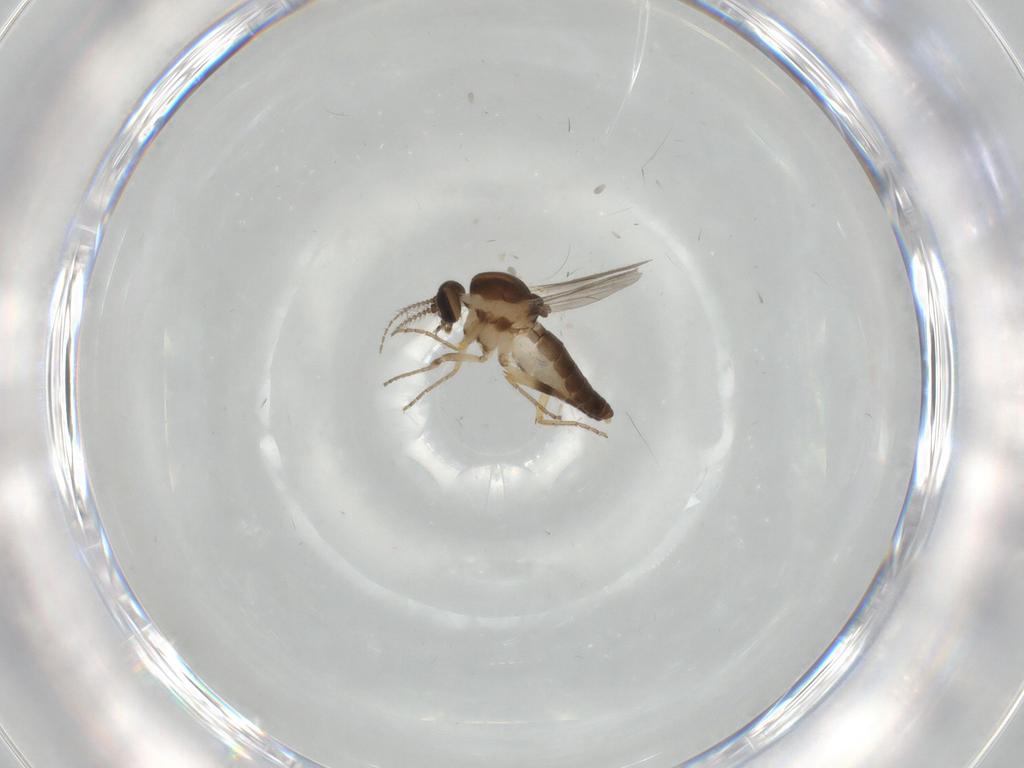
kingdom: Animalia
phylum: Arthropoda
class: Insecta
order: Diptera
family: Ceratopogonidae
